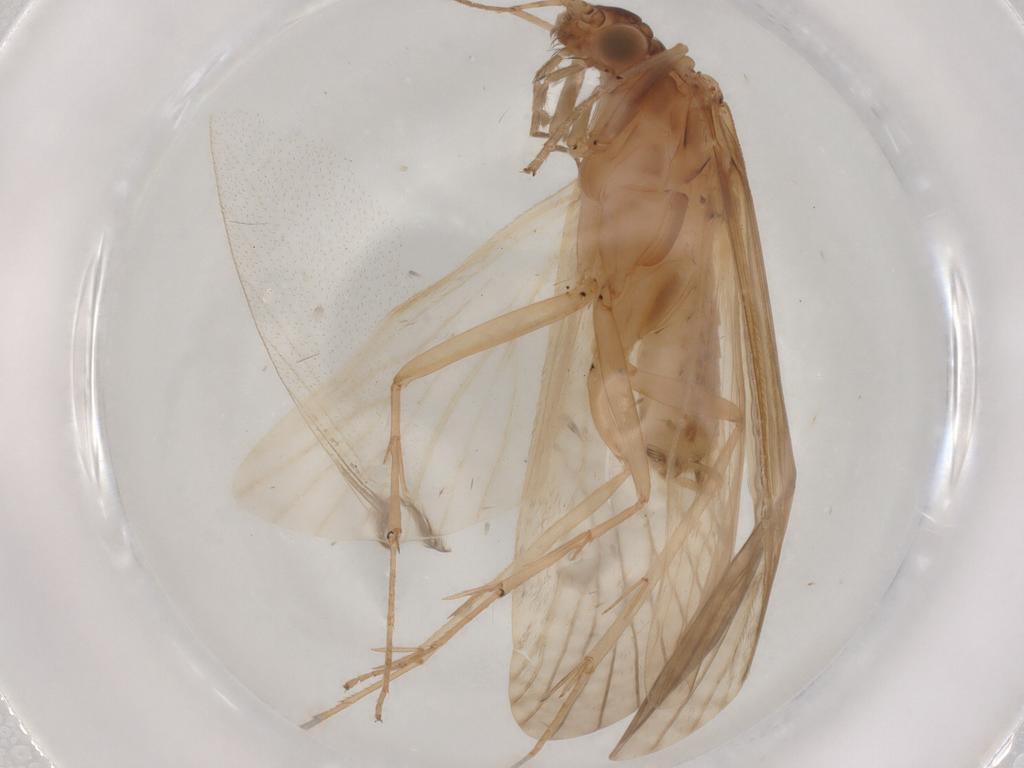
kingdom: Animalia
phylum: Arthropoda
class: Insecta
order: Trichoptera
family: Hydropsychidae
